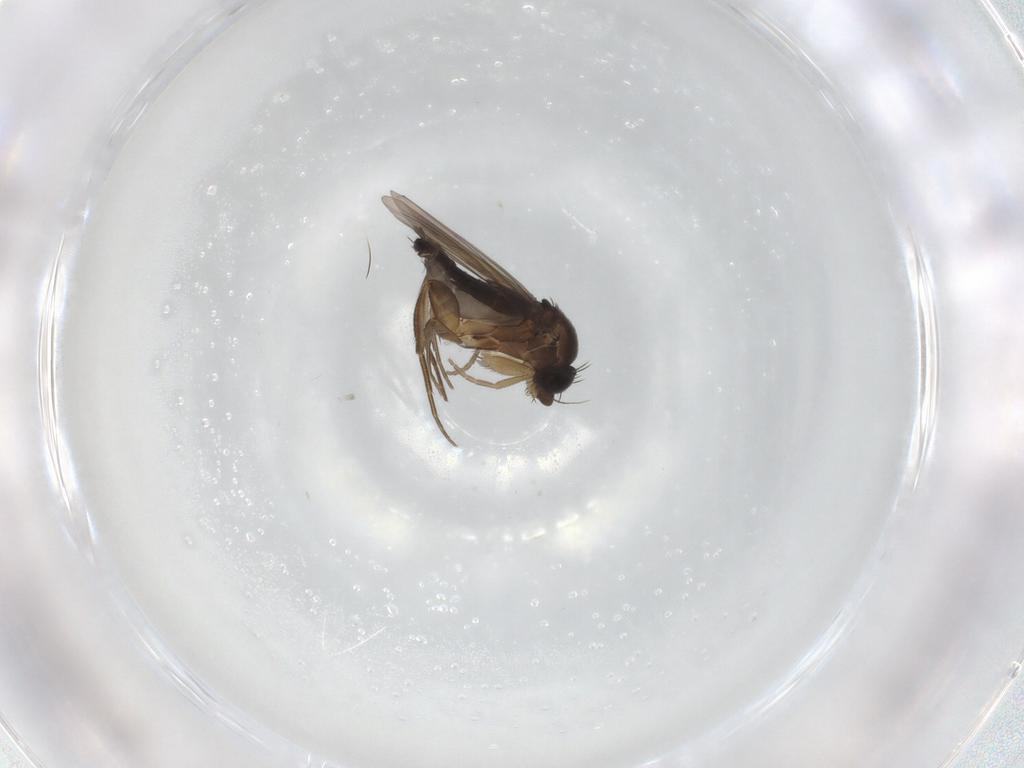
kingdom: Animalia
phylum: Arthropoda
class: Insecta
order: Diptera
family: Phoridae
